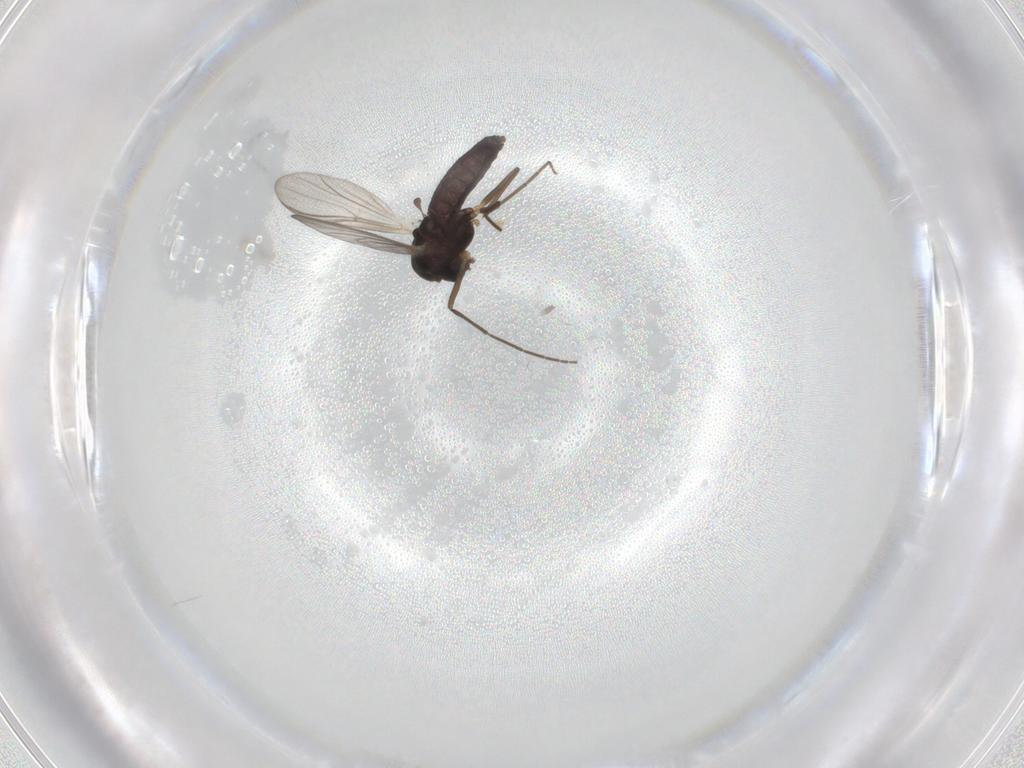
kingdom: Animalia
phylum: Arthropoda
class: Insecta
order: Diptera
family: Chironomidae
